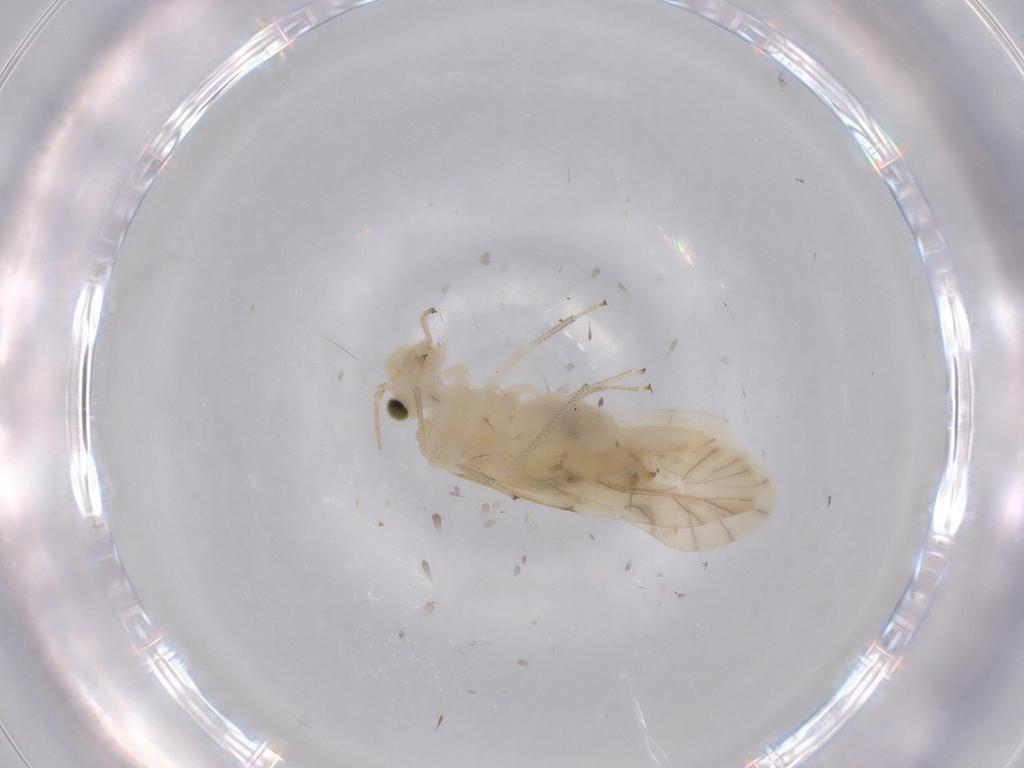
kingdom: Animalia
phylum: Arthropoda
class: Insecta
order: Psocodea
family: Caeciliusidae
